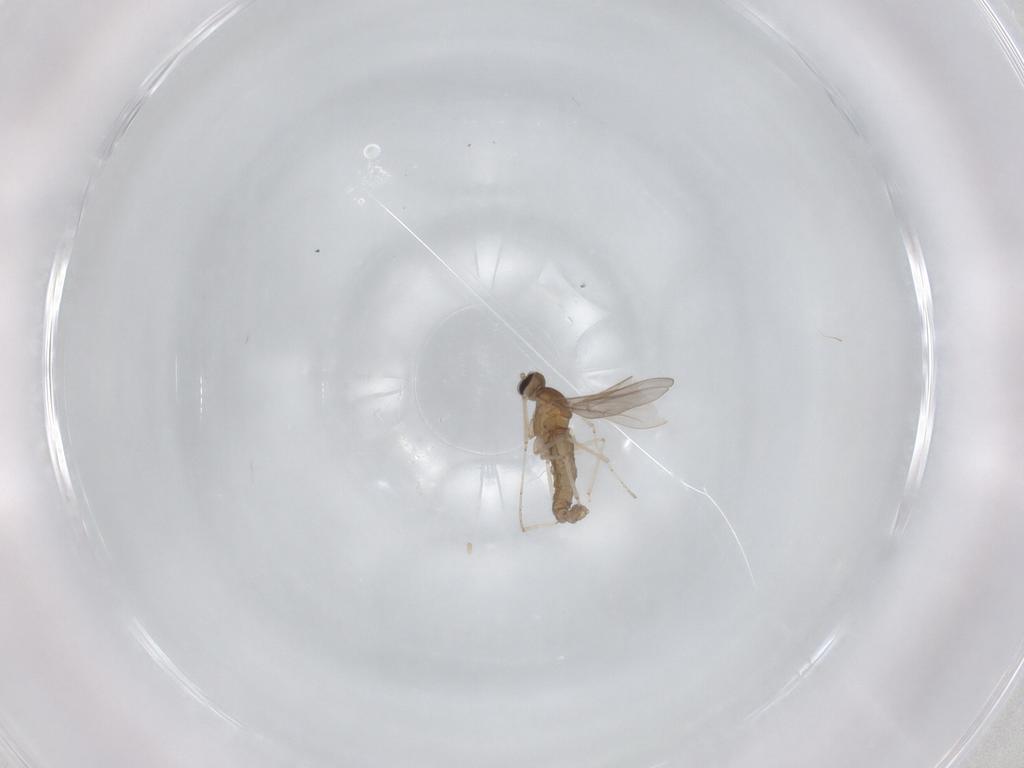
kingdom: Animalia
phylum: Arthropoda
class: Insecta
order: Diptera
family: Cecidomyiidae
